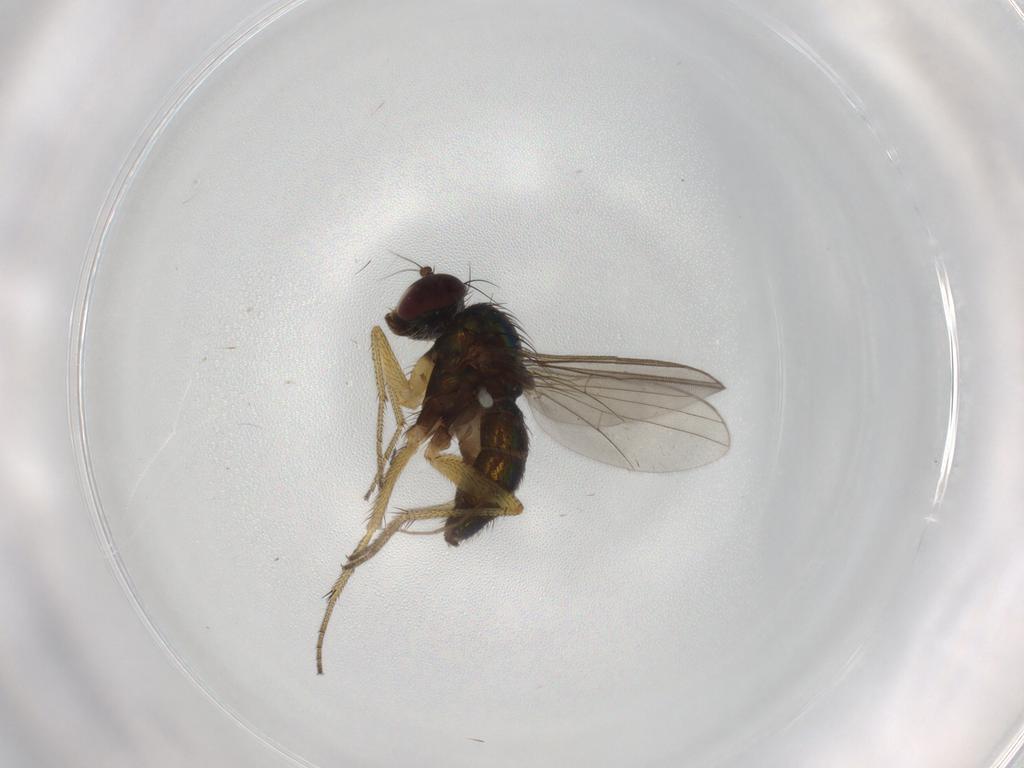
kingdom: Animalia
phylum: Arthropoda
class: Insecta
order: Diptera
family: Dolichopodidae
